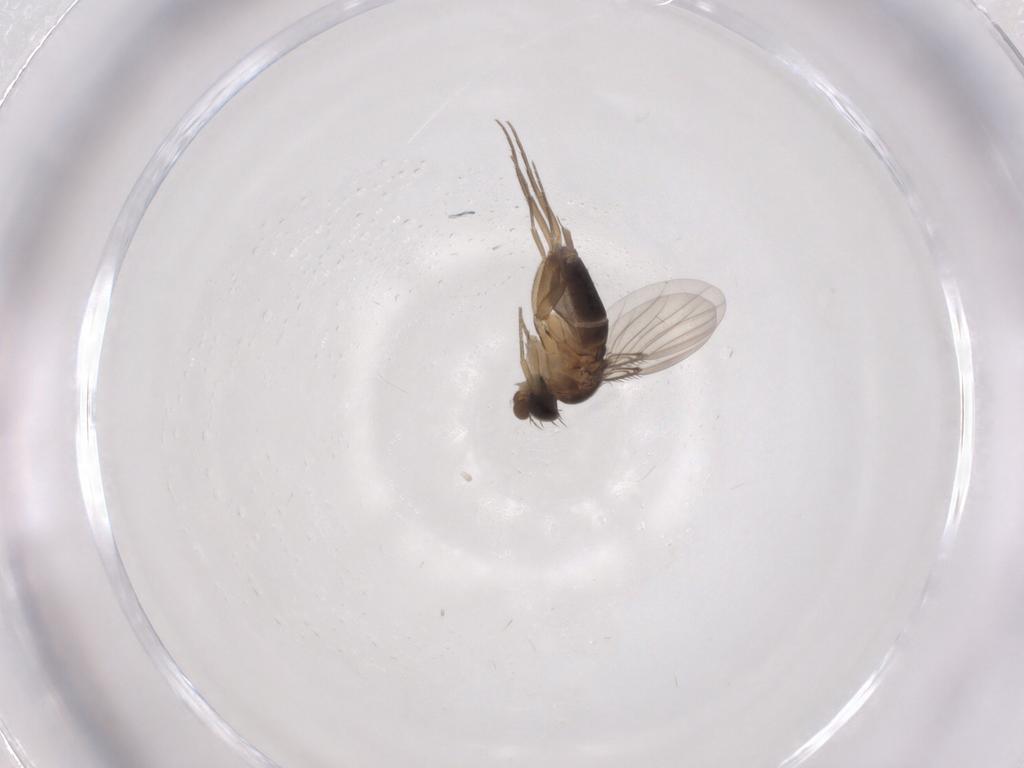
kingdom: Animalia
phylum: Arthropoda
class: Insecta
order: Diptera
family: Phoridae
